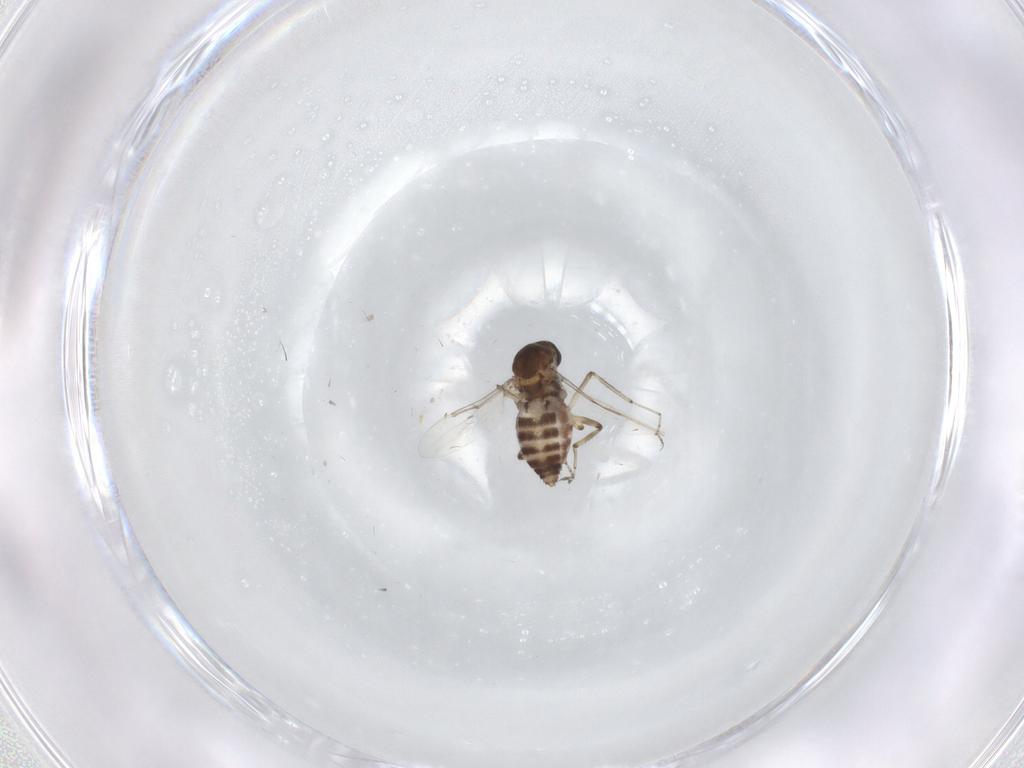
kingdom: Animalia
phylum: Arthropoda
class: Insecta
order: Diptera
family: Ceratopogonidae
